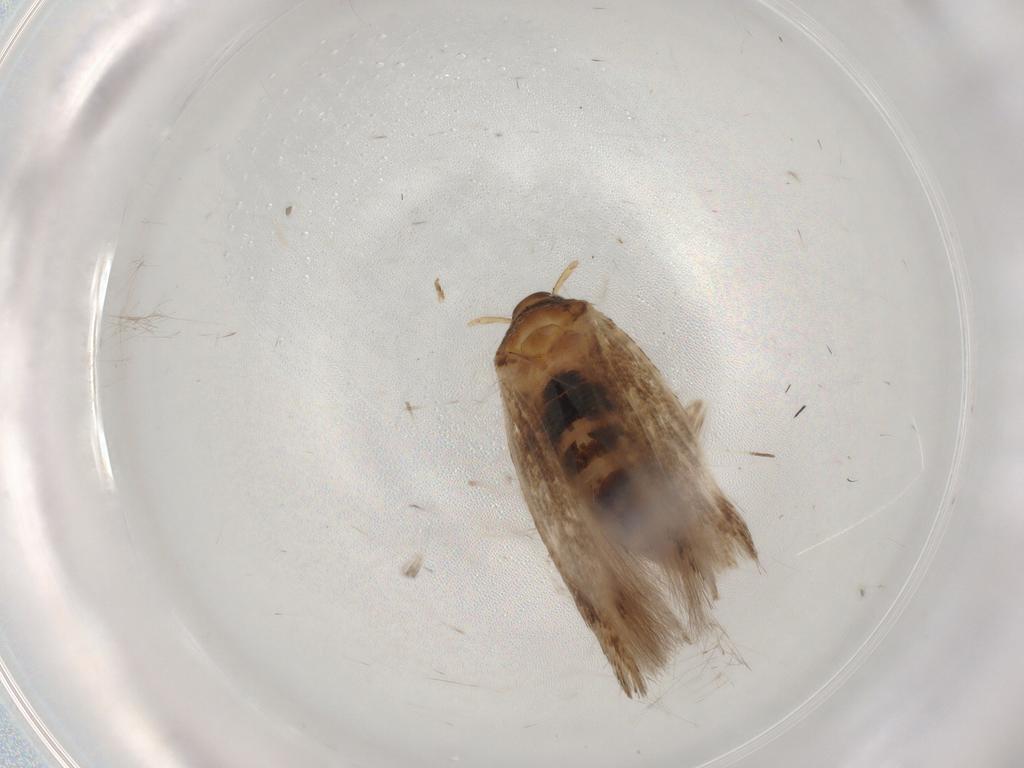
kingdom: Animalia
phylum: Arthropoda
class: Insecta
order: Lepidoptera
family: Cosmopterigidae
